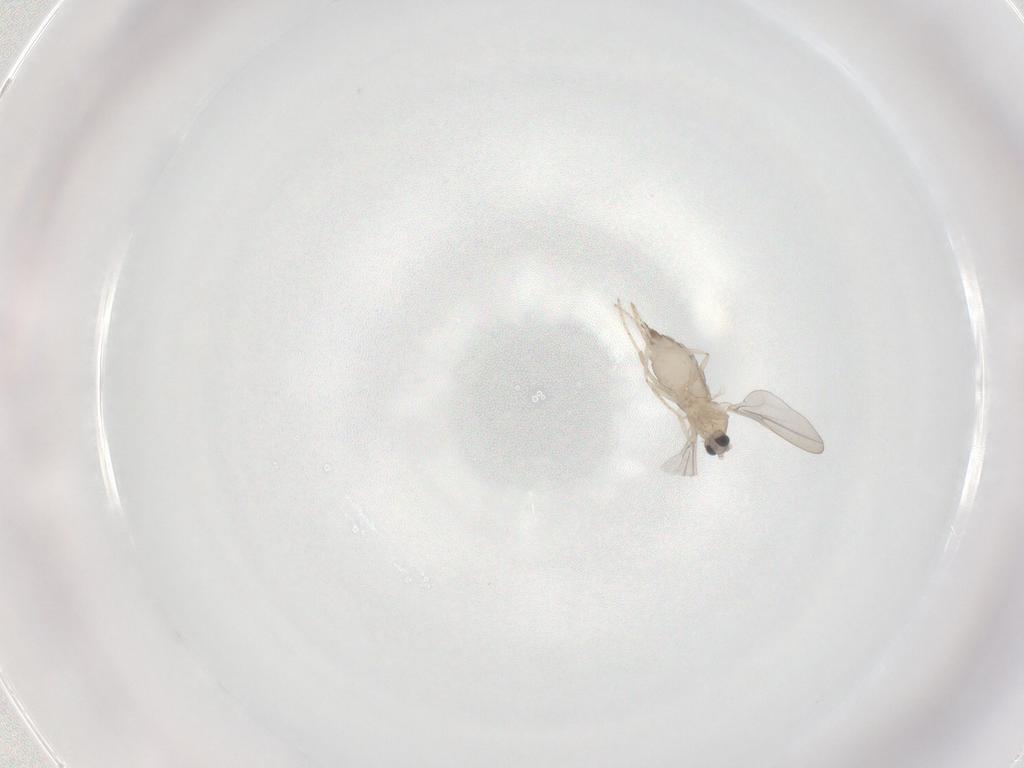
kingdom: Animalia
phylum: Arthropoda
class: Insecta
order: Diptera
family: Cecidomyiidae
